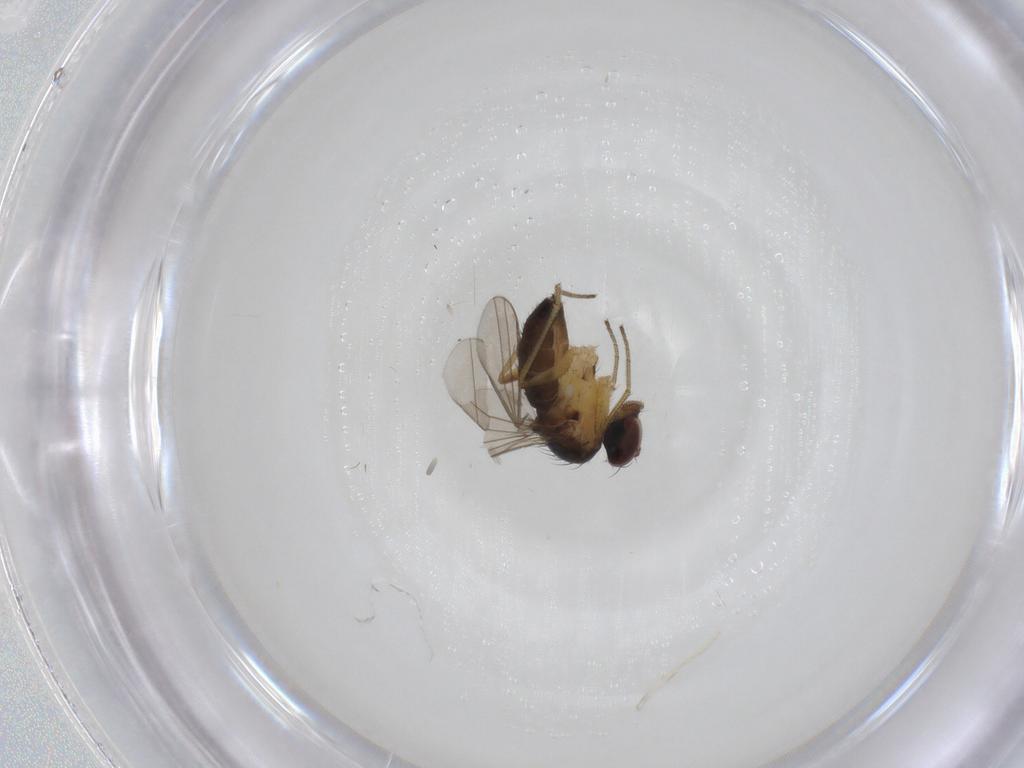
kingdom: Animalia
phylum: Arthropoda
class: Insecta
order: Diptera
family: Dolichopodidae
